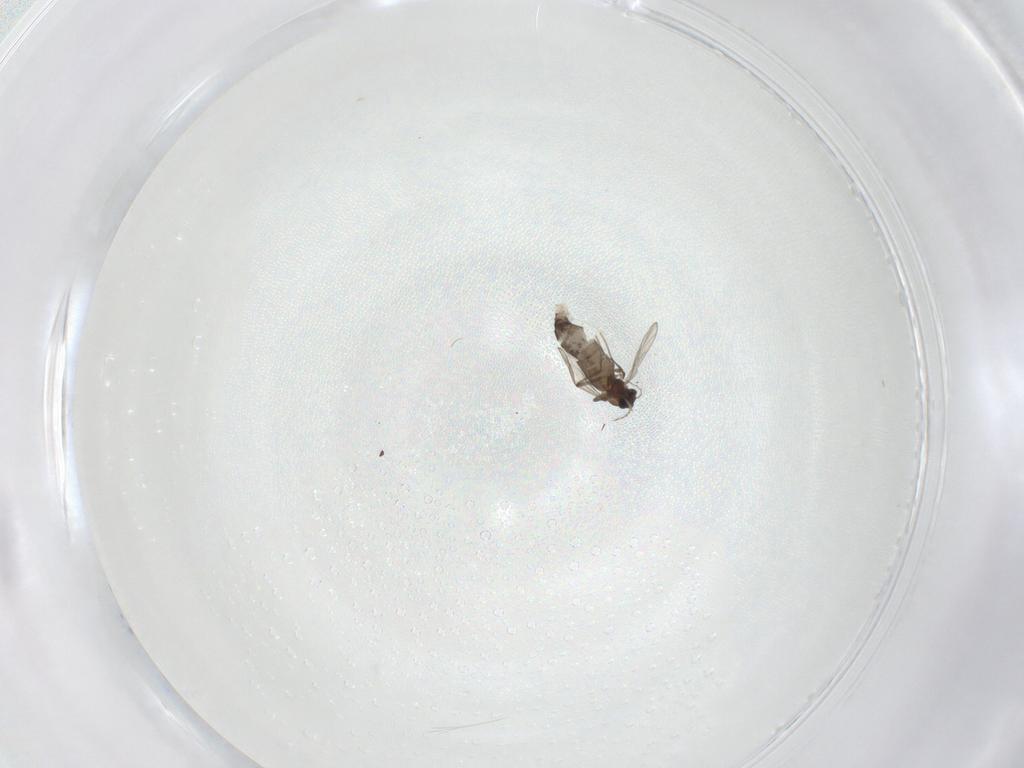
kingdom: Animalia
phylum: Arthropoda
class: Insecta
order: Diptera
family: Chironomidae
